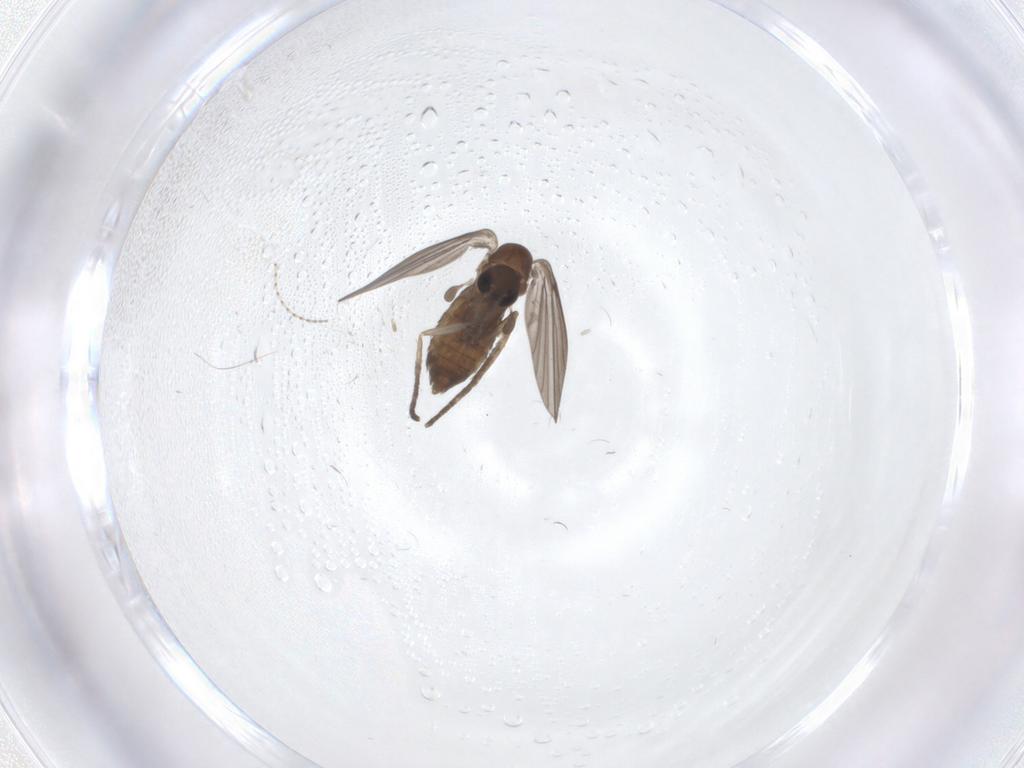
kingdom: Animalia
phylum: Arthropoda
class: Insecta
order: Diptera
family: Cecidomyiidae
